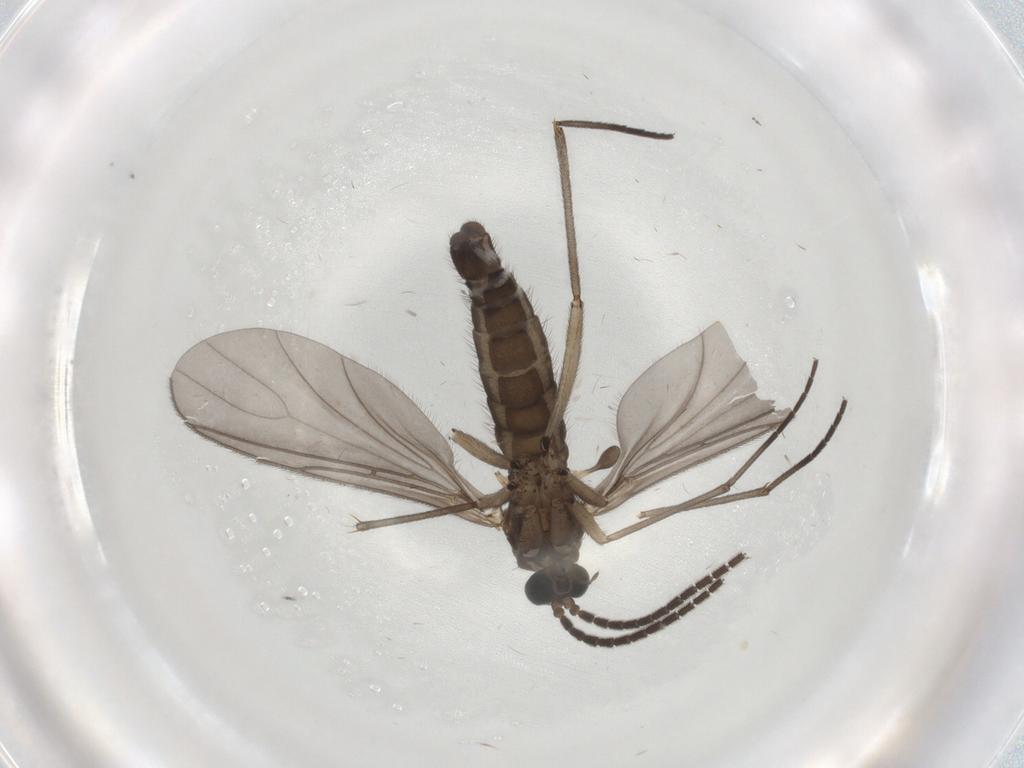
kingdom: Animalia
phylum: Arthropoda
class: Insecta
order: Diptera
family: Sciaridae
